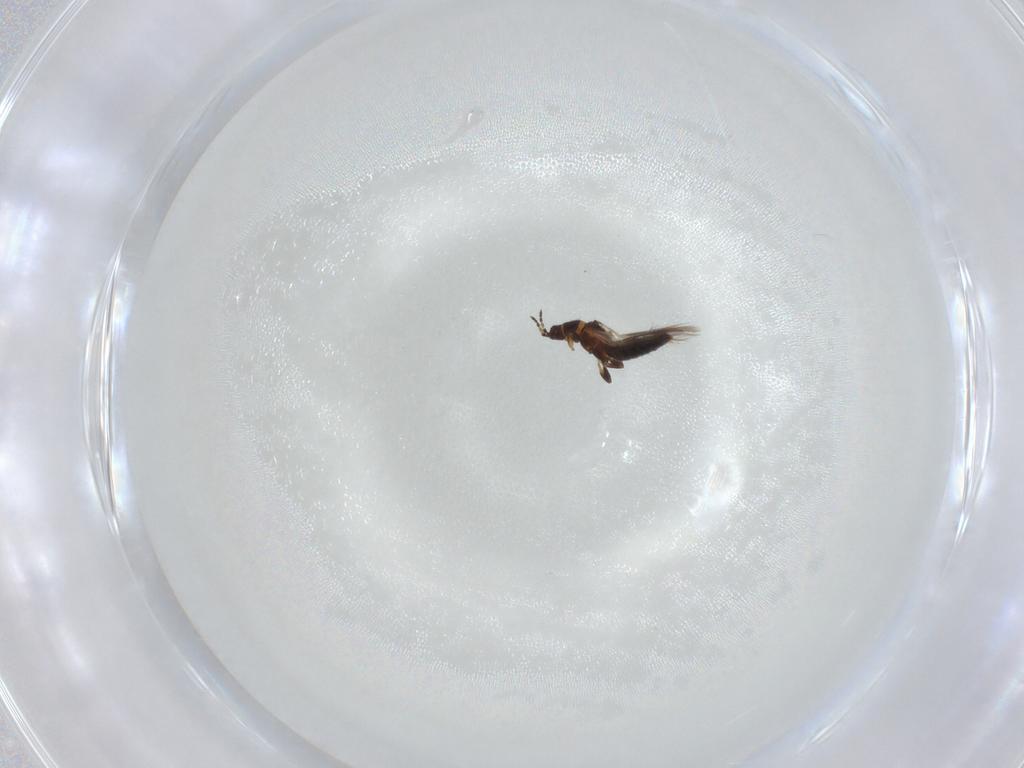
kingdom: Animalia
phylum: Arthropoda
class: Insecta
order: Thysanoptera
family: Thripidae
